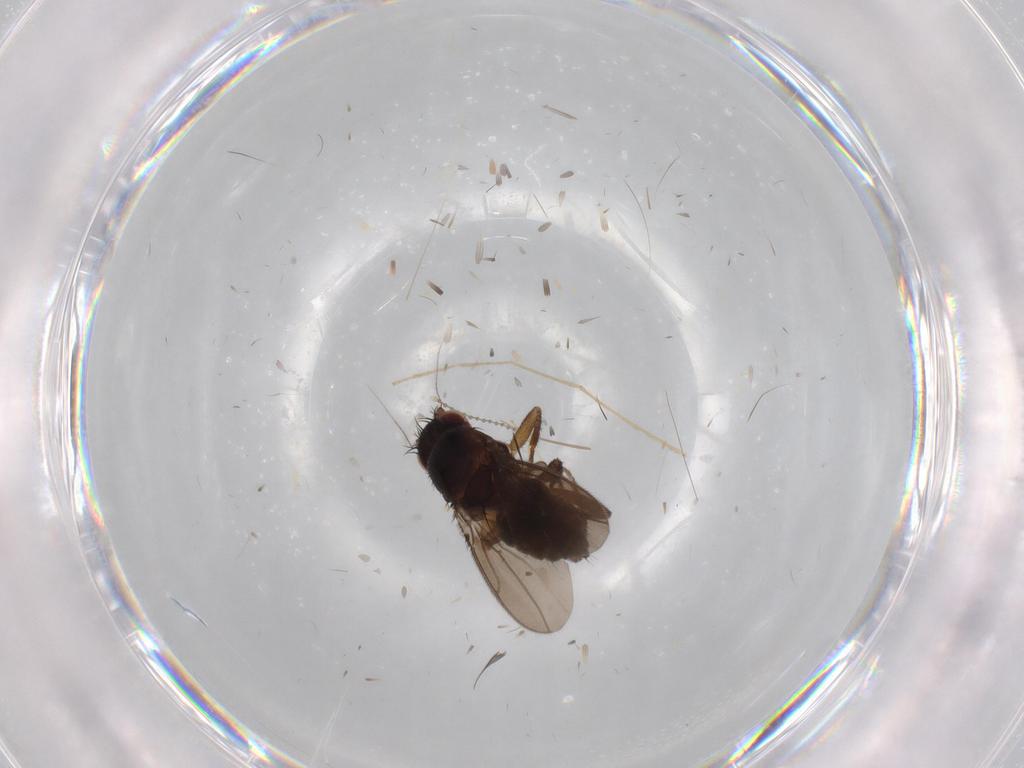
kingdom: Animalia
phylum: Arthropoda
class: Insecta
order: Diptera
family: Chironomidae
